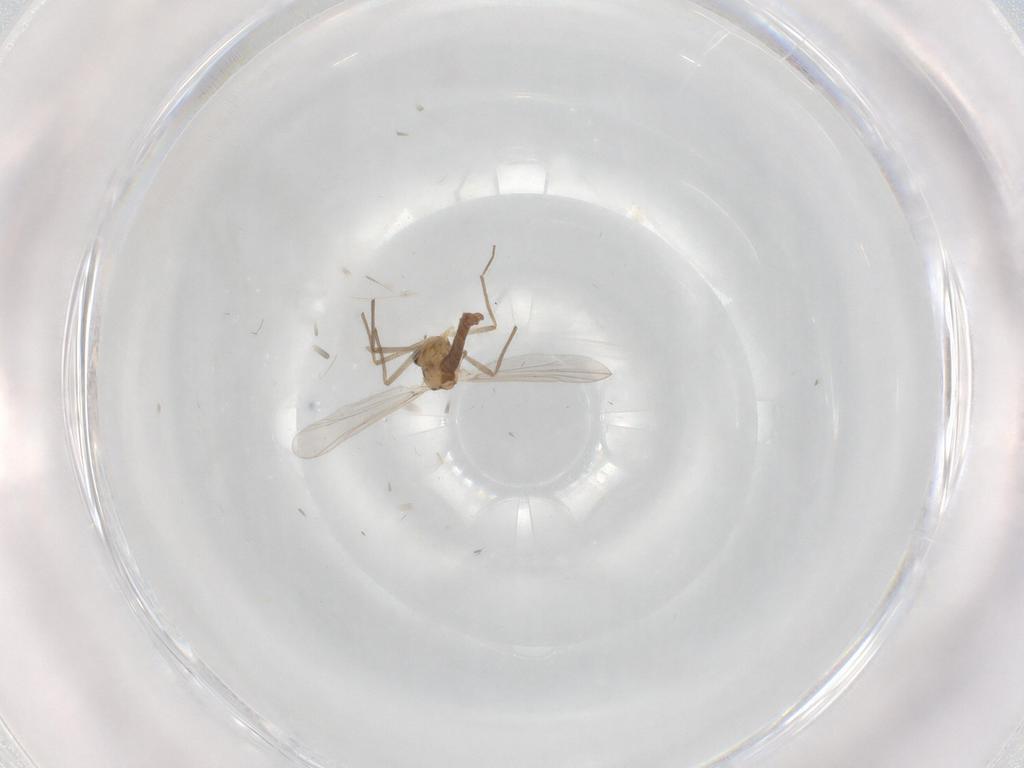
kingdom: Animalia
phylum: Arthropoda
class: Insecta
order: Diptera
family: Chironomidae
